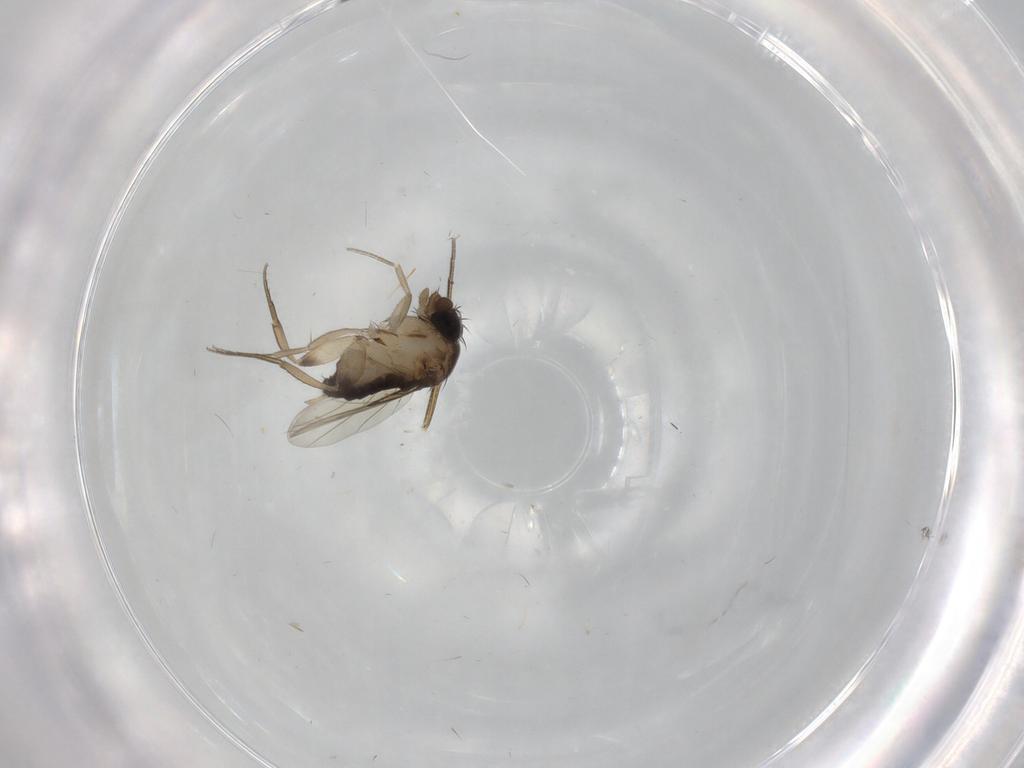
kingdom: Animalia
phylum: Arthropoda
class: Insecta
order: Diptera
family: Phoridae
